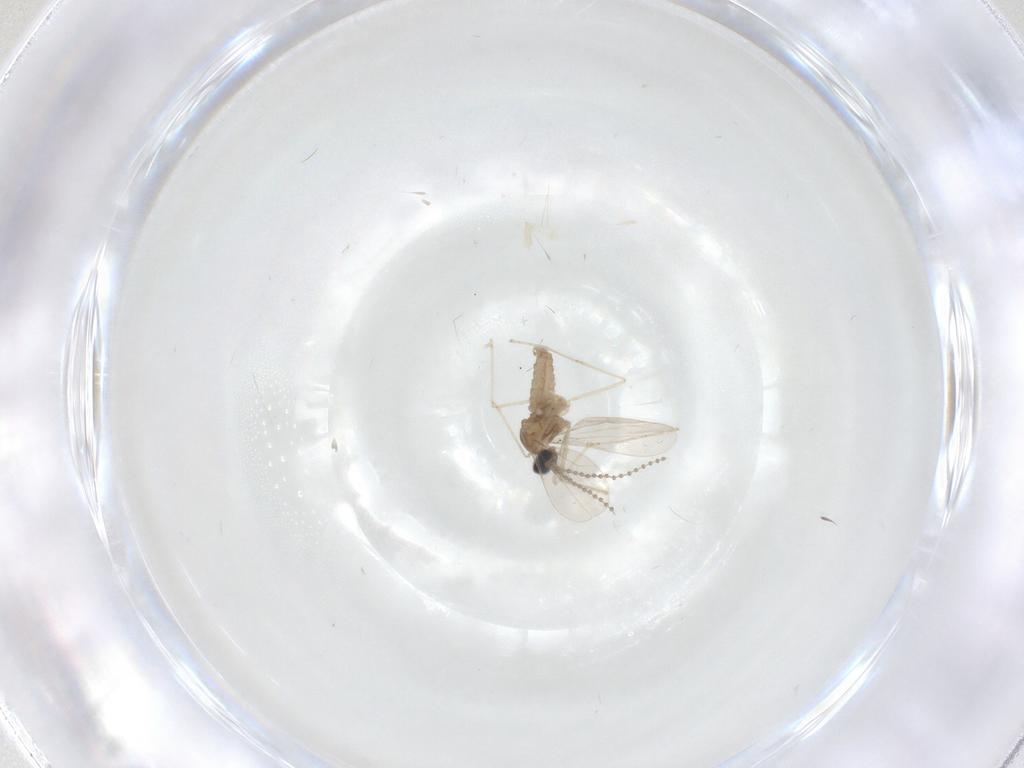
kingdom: Animalia
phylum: Arthropoda
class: Insecta
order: Diptera
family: Cecidomyiidae
